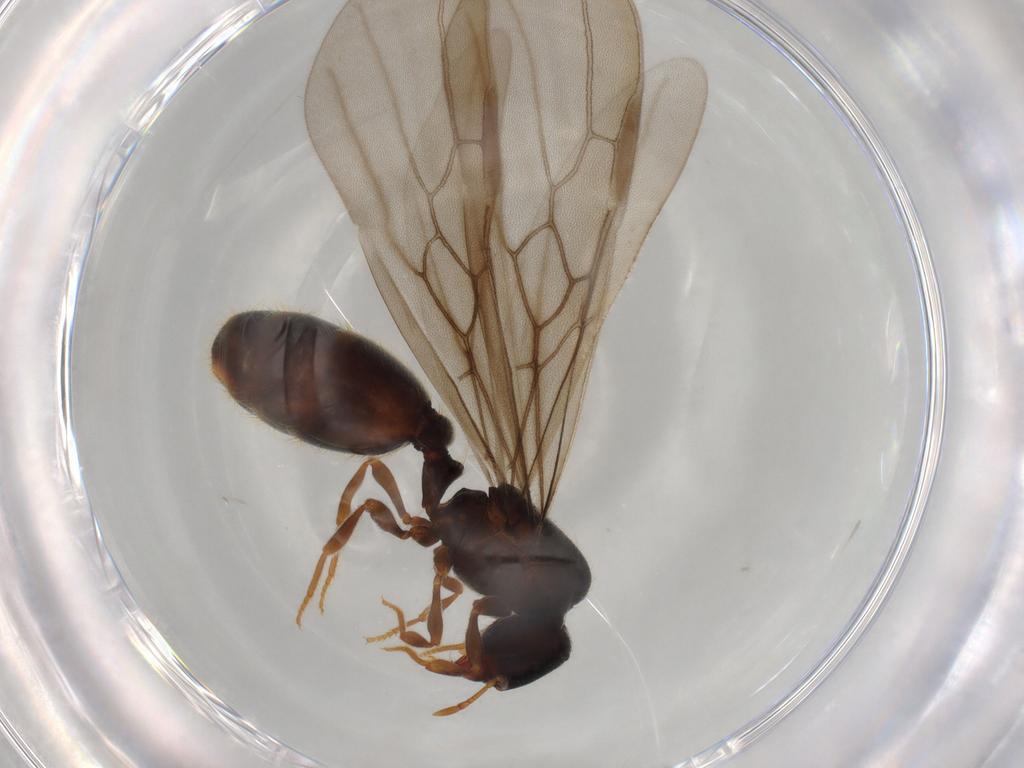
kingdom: Animalia
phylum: Arthropoda
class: Insecta
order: Hymenoptera
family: Formicidae
